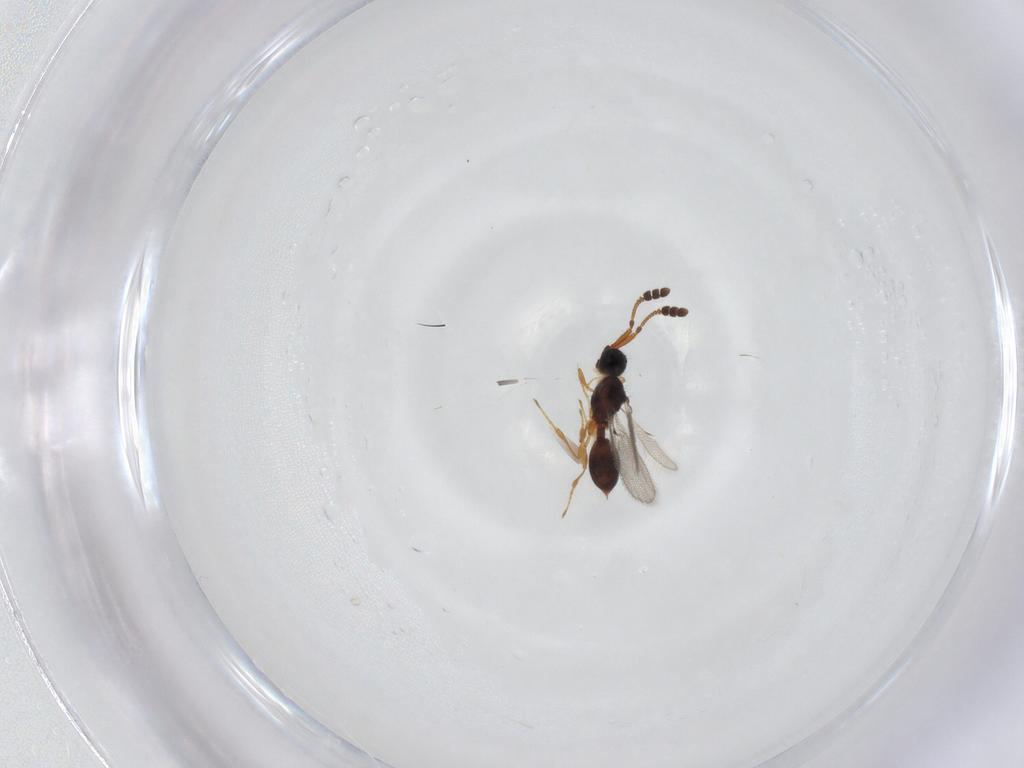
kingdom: Animalia
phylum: Arthropoda
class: Insecta
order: Hymenoptera
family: Diapriidae
